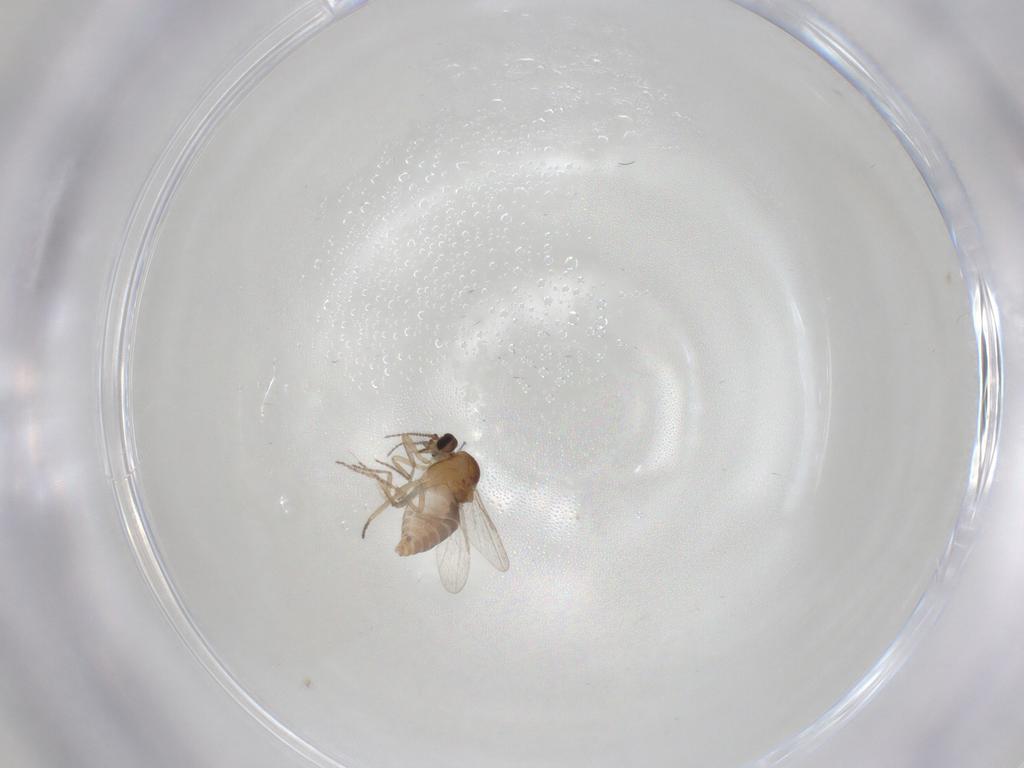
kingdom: Animalia
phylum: Arthropoda
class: Insecta
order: Diptera
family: Ceratopogonidae
